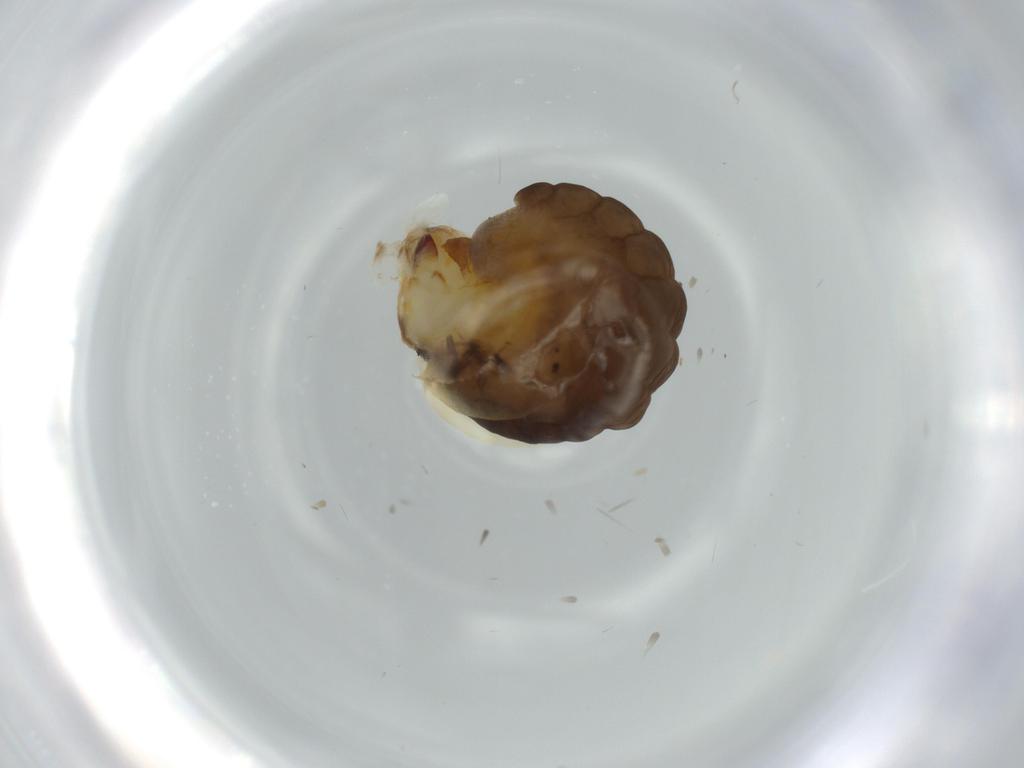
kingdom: Animalia
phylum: Arthropoda
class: Insecta
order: Hymenoptera
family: Dryinidae
